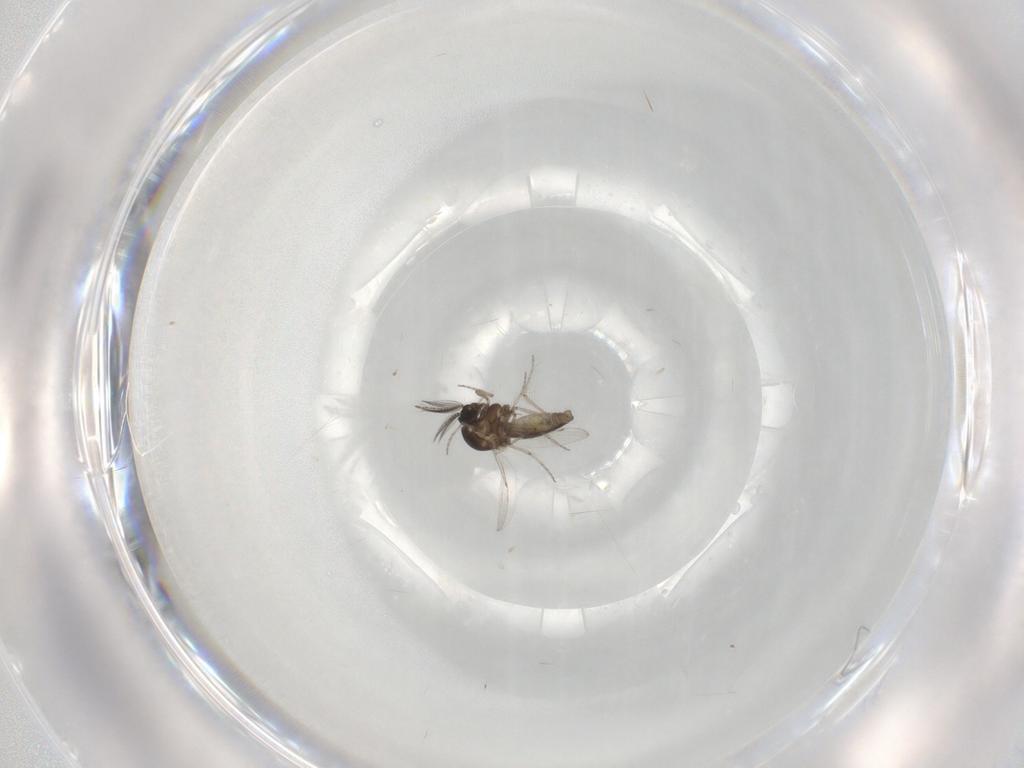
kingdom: Animalia
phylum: Arthropoda
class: Insecta
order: Diptera
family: Ceratopogonidae
